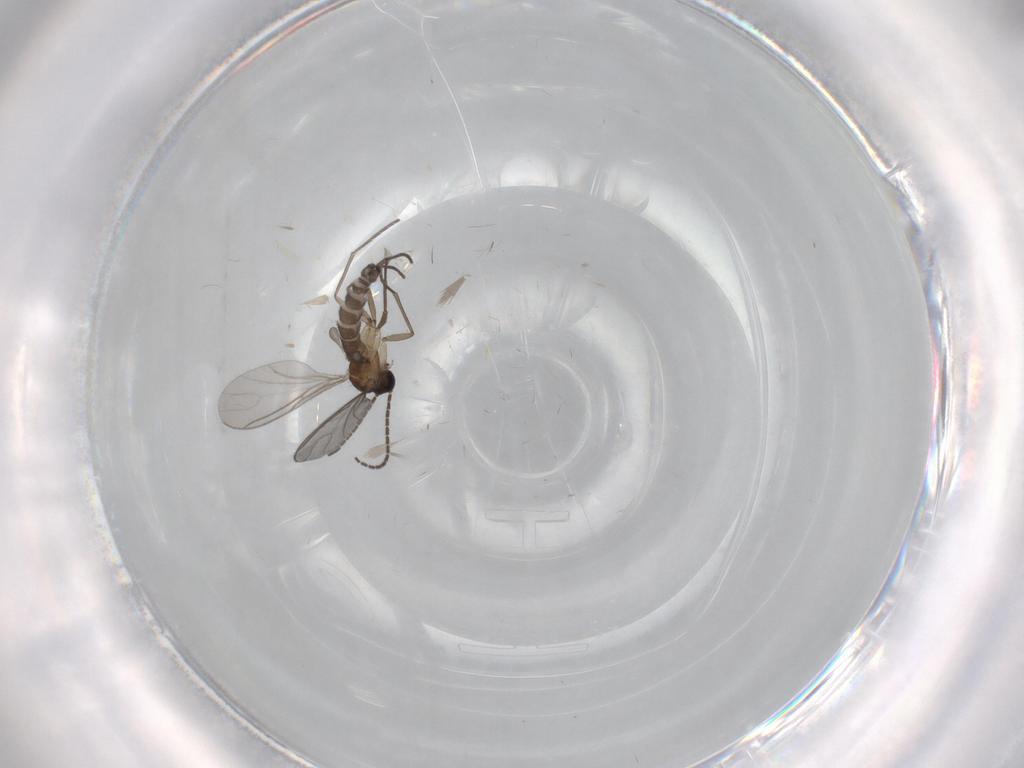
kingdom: Animalia
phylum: Arthropoda
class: Insecta
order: Diptera
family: Sciaridae
